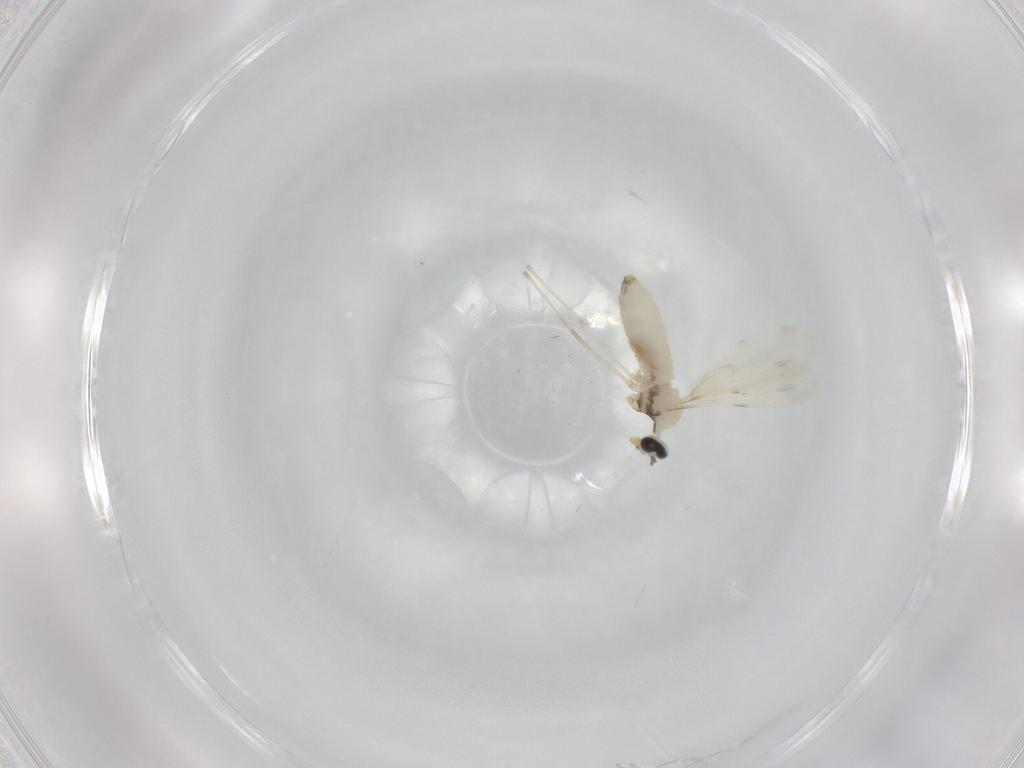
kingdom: Animalia
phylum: Arthropoda
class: Insecta
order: Diptera
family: Cecidomyiidae
